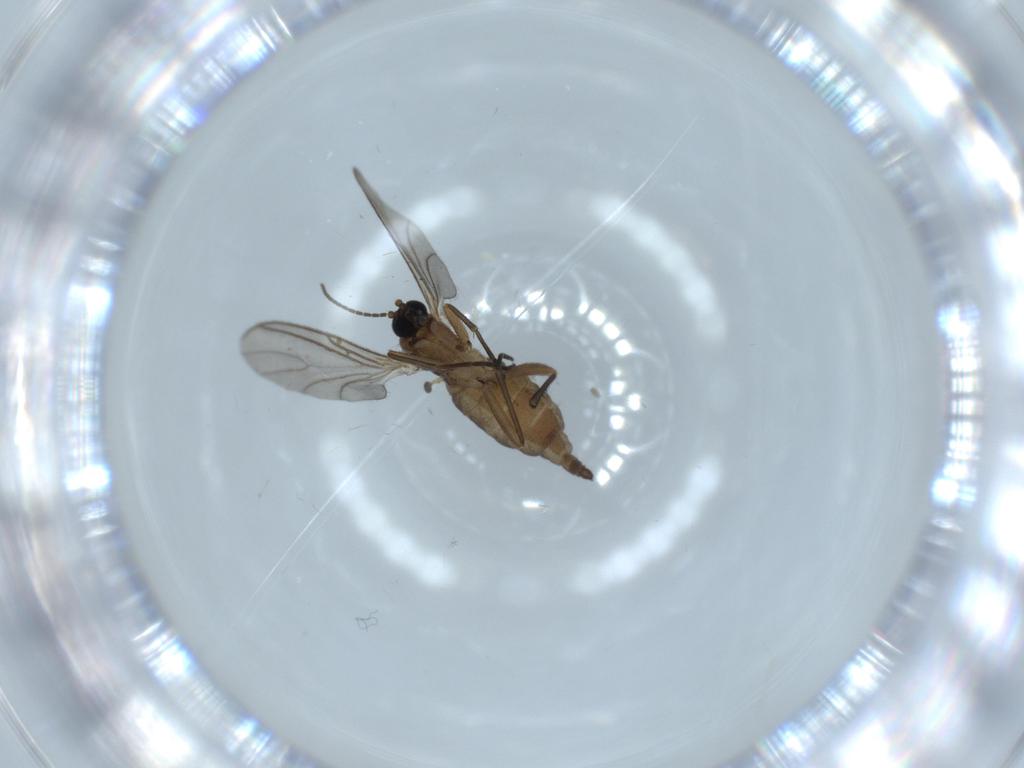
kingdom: Animalia
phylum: Arthropoda
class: Insecta
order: Diptera
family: Sciaridae
